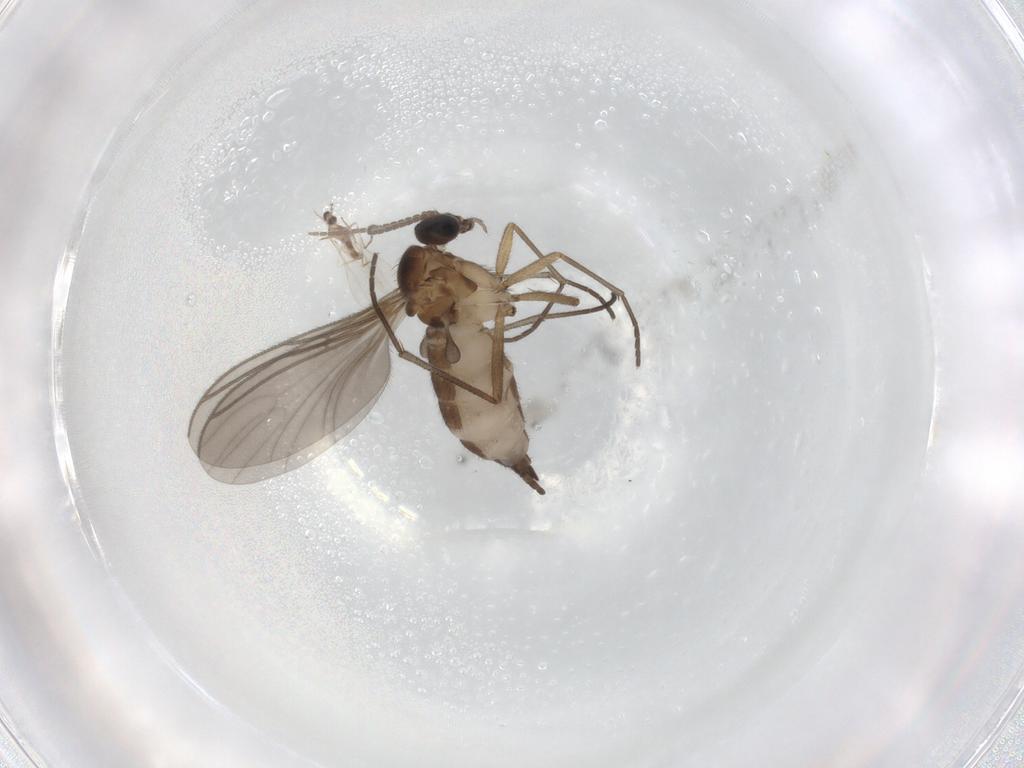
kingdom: Animalia
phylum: Arthropoda
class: Insecta
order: Diptera
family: Sciaridae
